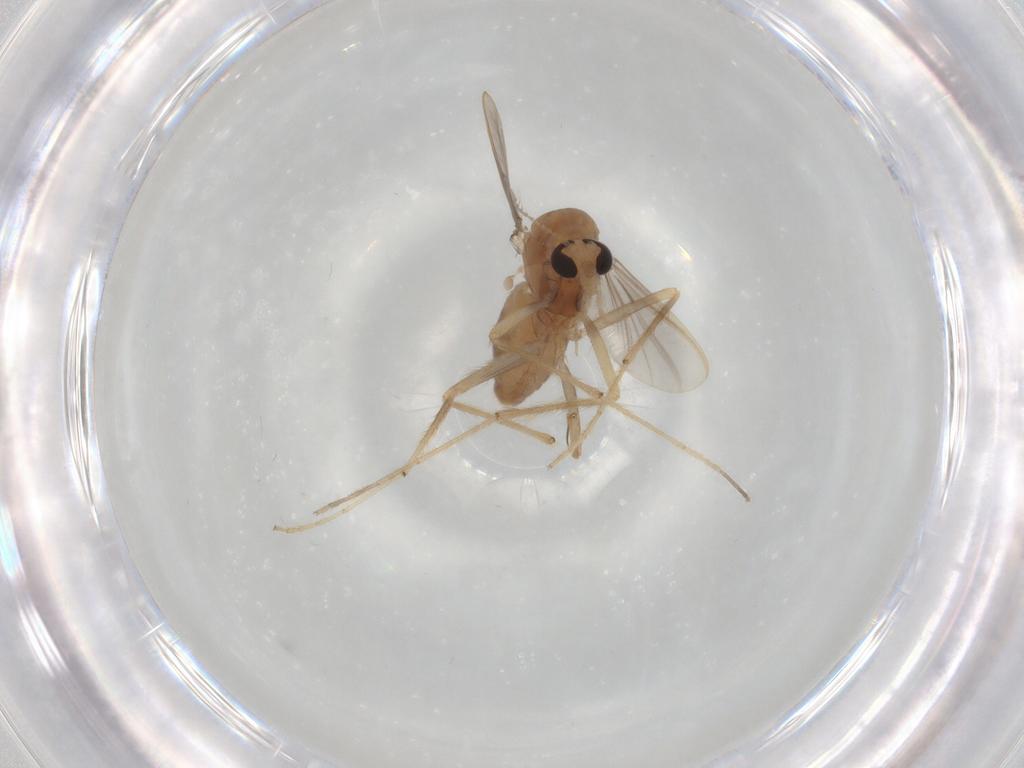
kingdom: Animalia
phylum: Arthropoda
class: Insecta
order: Diptera
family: Chironomidae
